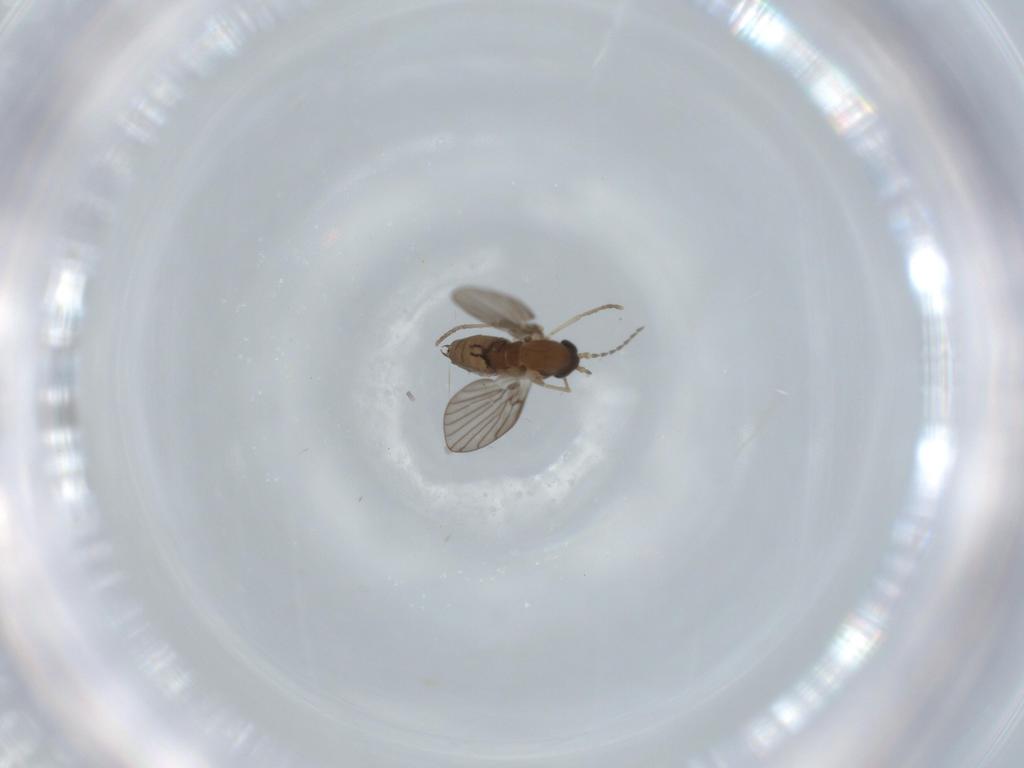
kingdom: Animalia
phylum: Arthropoda
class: Insecta
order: Diptera
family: Psychodidae
